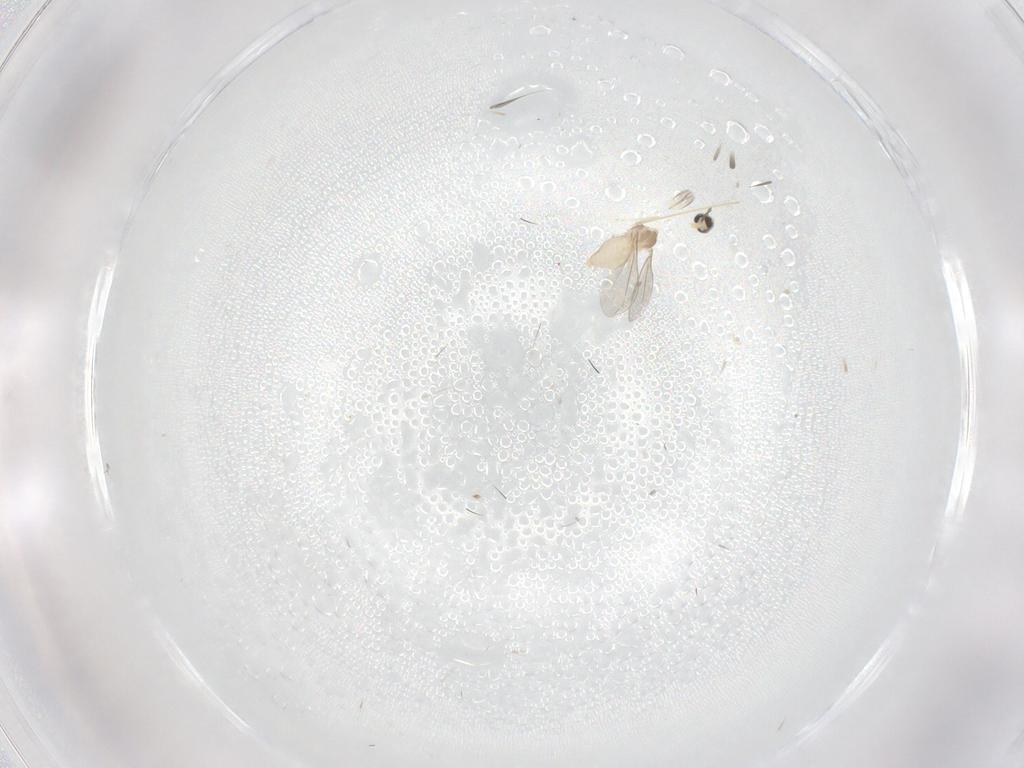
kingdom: Animalia
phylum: Arthropoda
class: Insecta
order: Diptera
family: Cecidomyiidae
